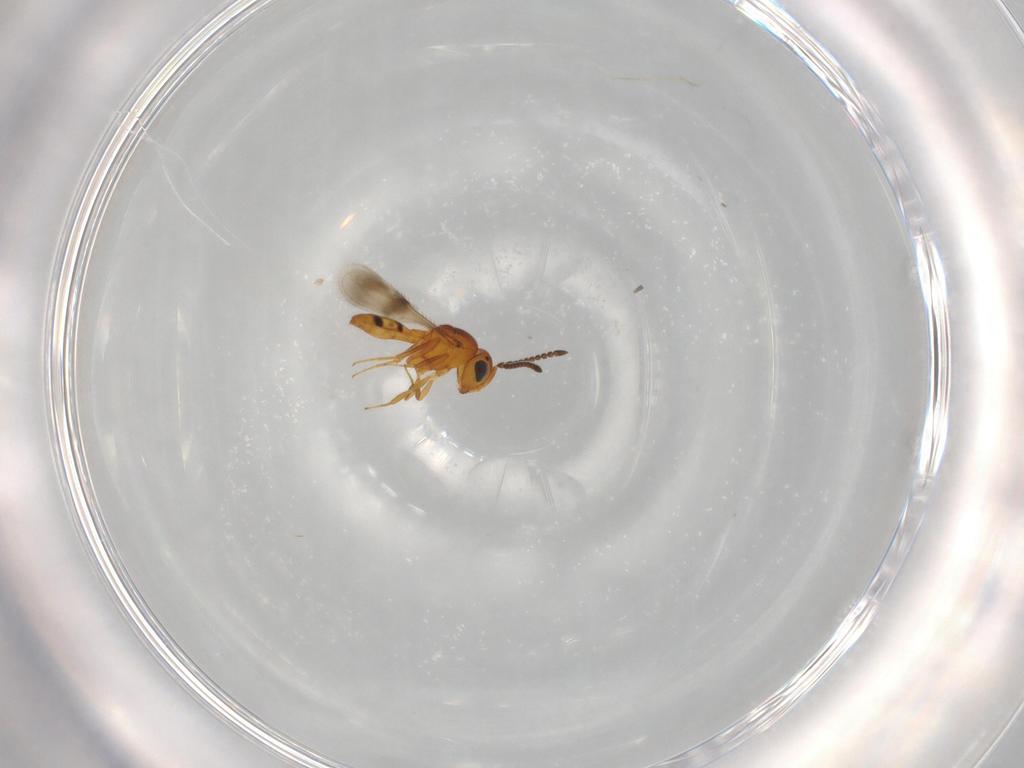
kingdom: Animalia
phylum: Arthropoda
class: Insecta
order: Hymenoptera
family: Scelionidae
